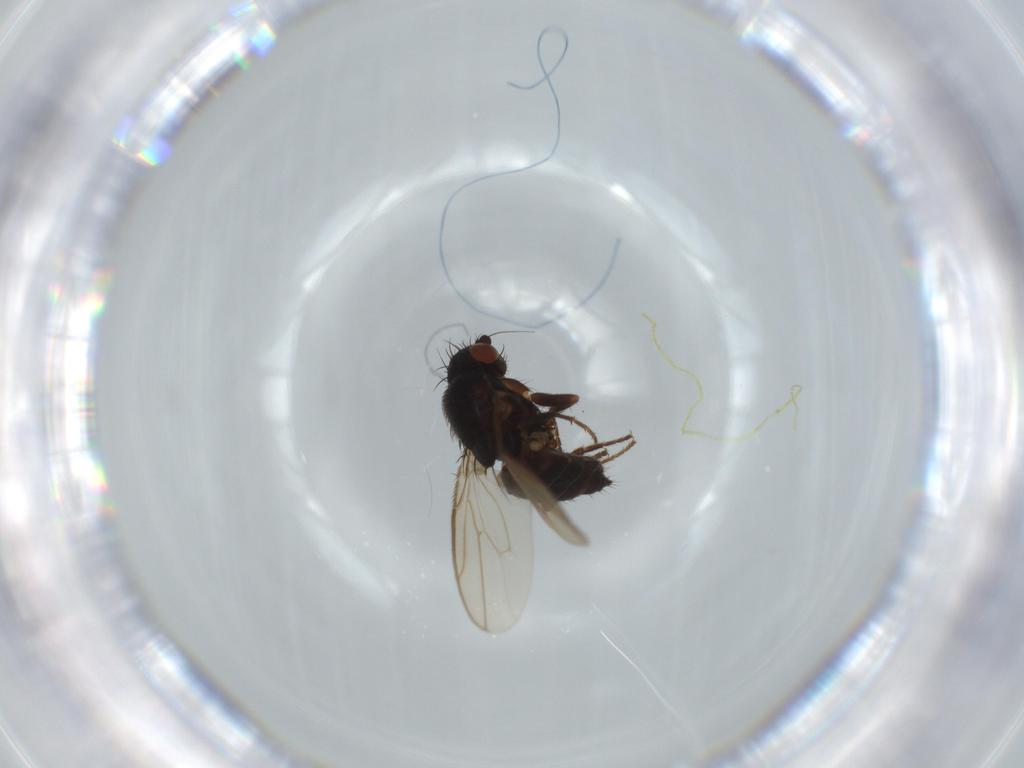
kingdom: Animalia
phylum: Arthropoda
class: Insecta
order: Diptera
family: Sphaeroceridae
